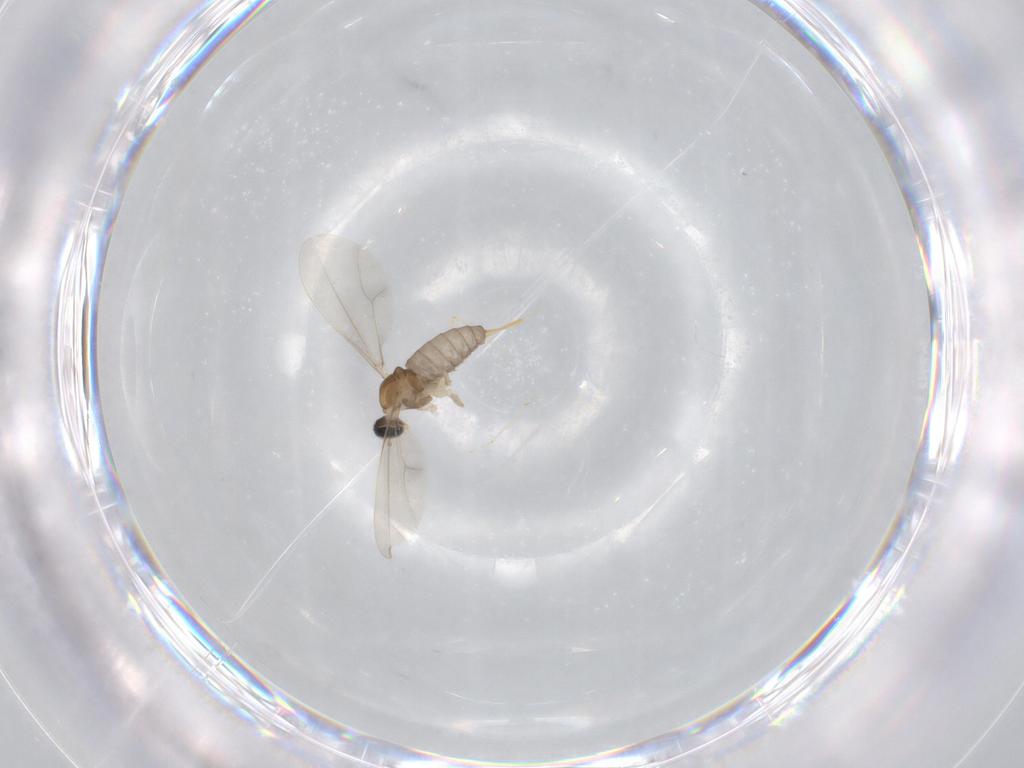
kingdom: Animalia
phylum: Arthropoda
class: Insecta
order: Diptera
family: Cecidomyiidae
